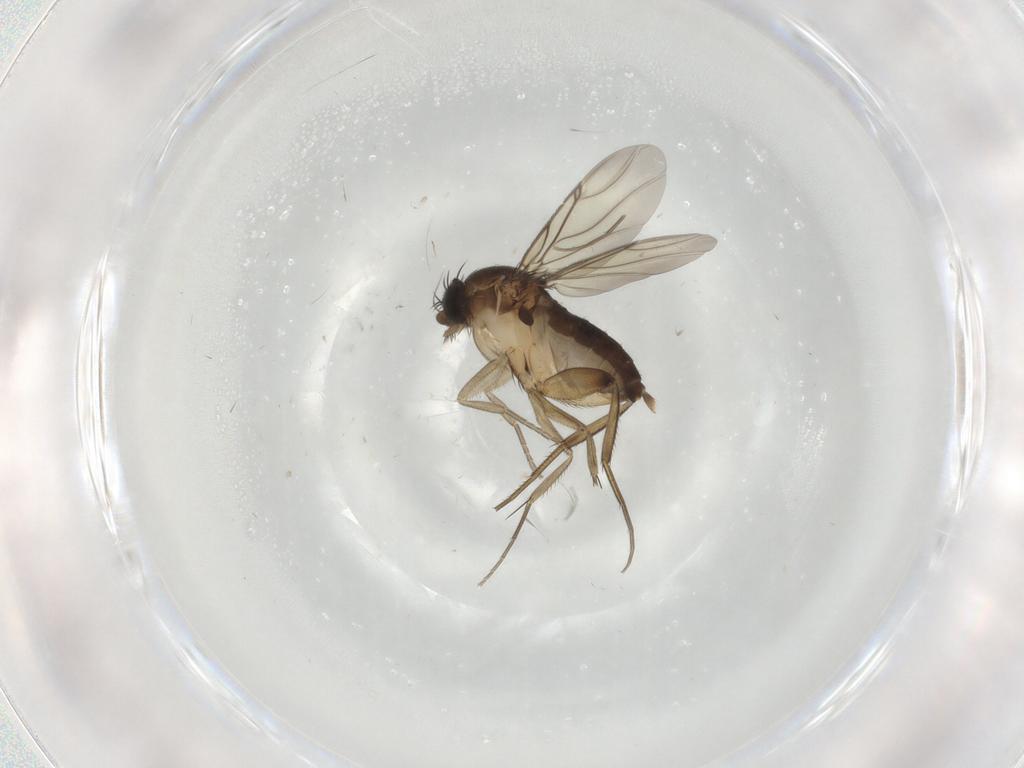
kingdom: Animalia
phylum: Arthropoda
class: Insecta
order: Diptera
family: Phoridae
